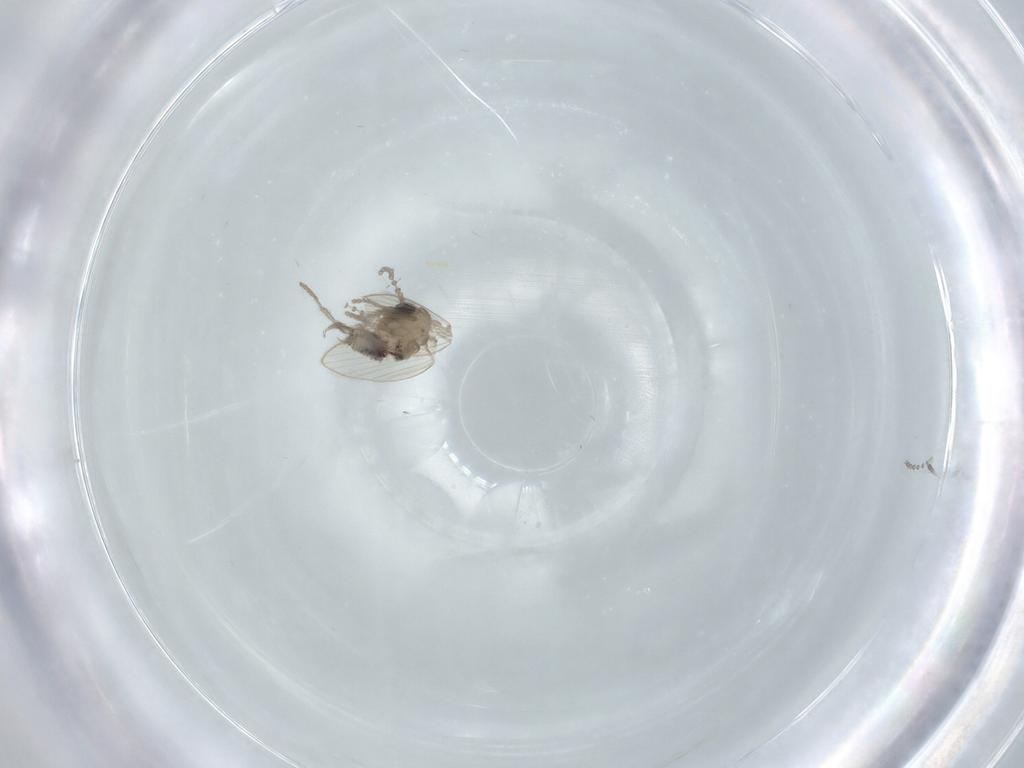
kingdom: Animalia
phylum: Arthropoda
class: Insecta
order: Diptera
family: Psychodidae
